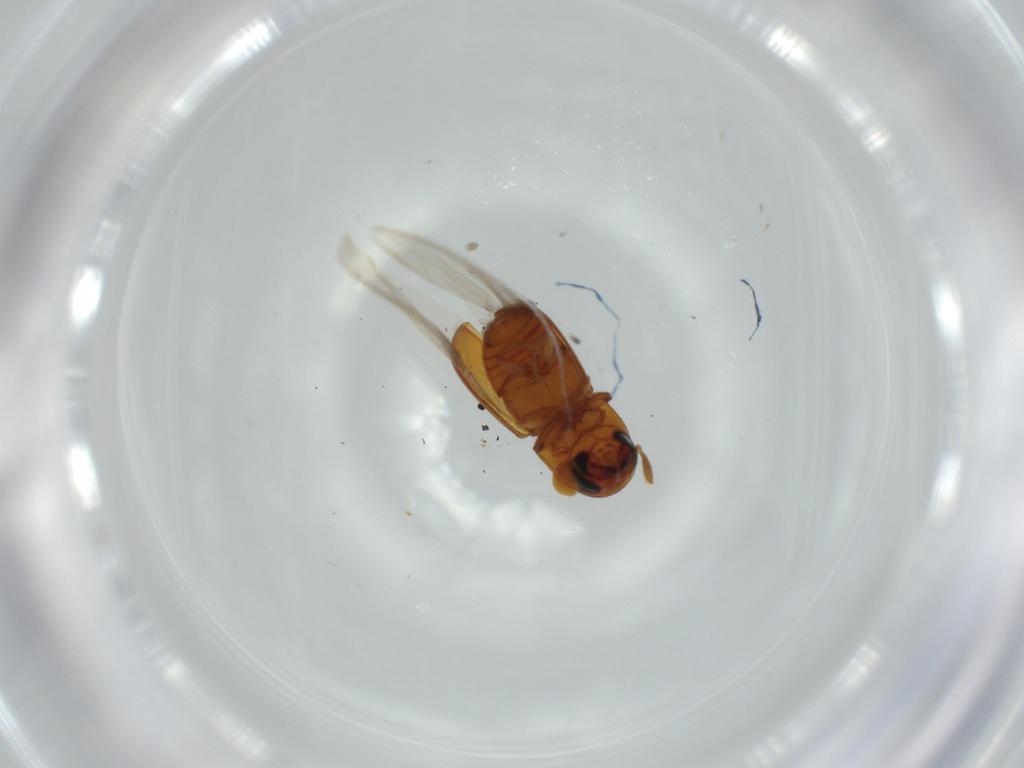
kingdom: Animalia
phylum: Arthropoda
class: Insecta
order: Coleoptera
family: Curculionidae
